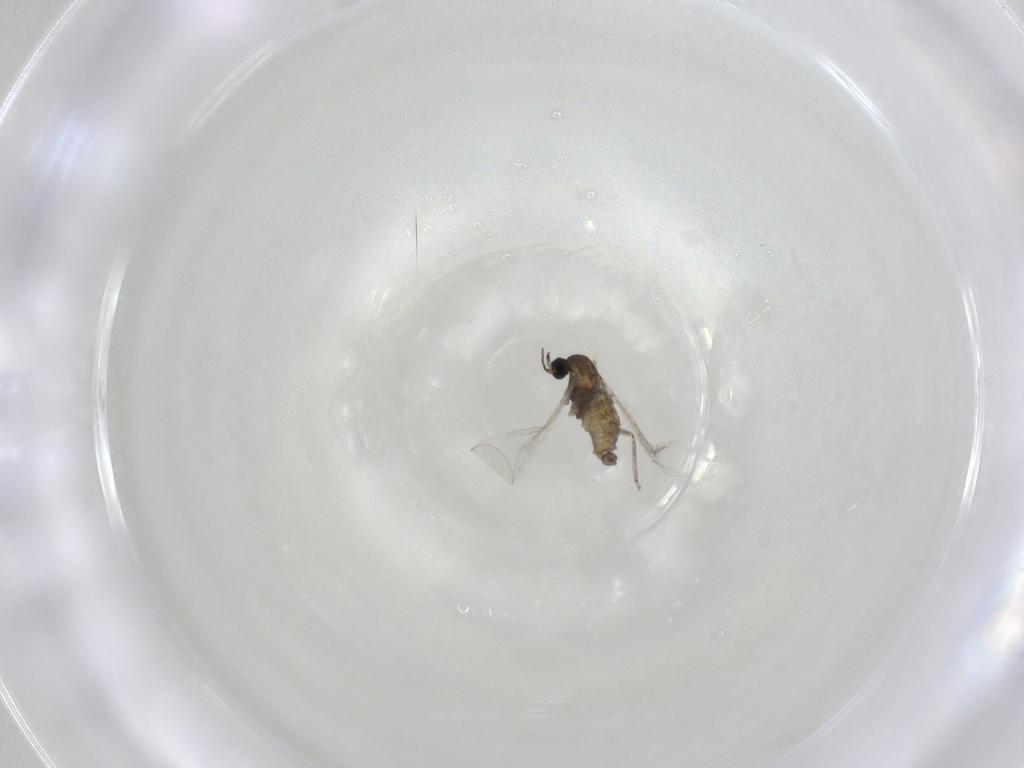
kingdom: Animalia
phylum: Arthropoda
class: Insecta
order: Diptera
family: Cecidomyiidae
